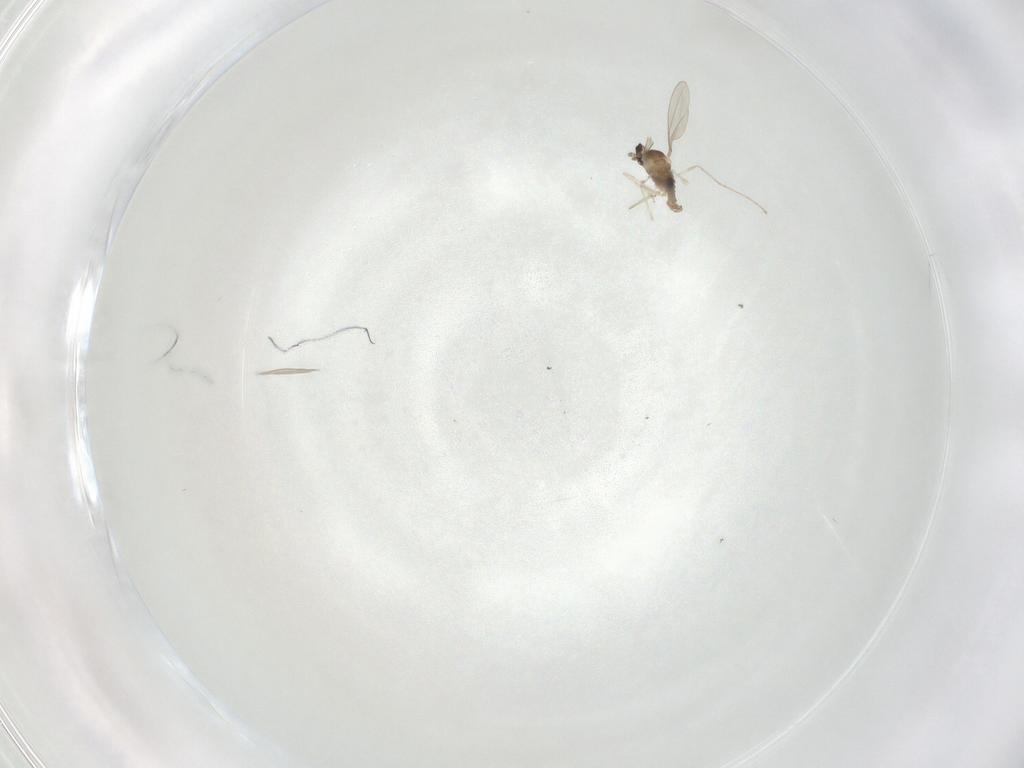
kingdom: Animalia
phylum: Arthropoda
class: Insecta
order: Diptera
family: Cecidomyiidae
